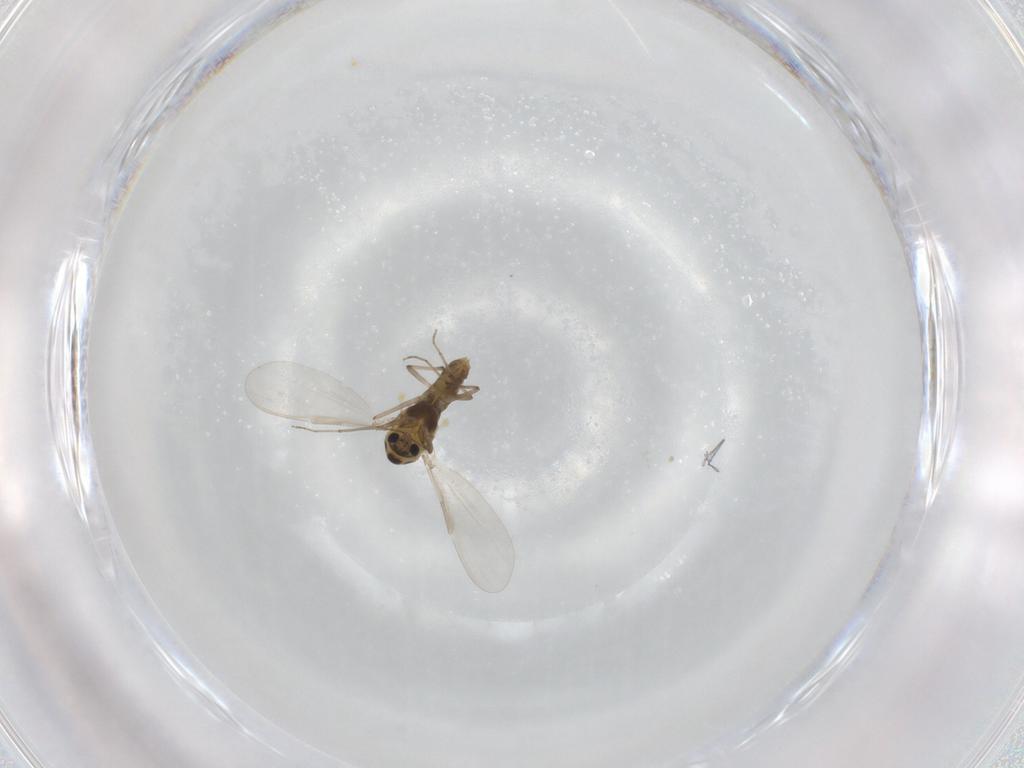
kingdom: Animalia
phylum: Arthropoda
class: Insecta
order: Diptera
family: Chironomidae
